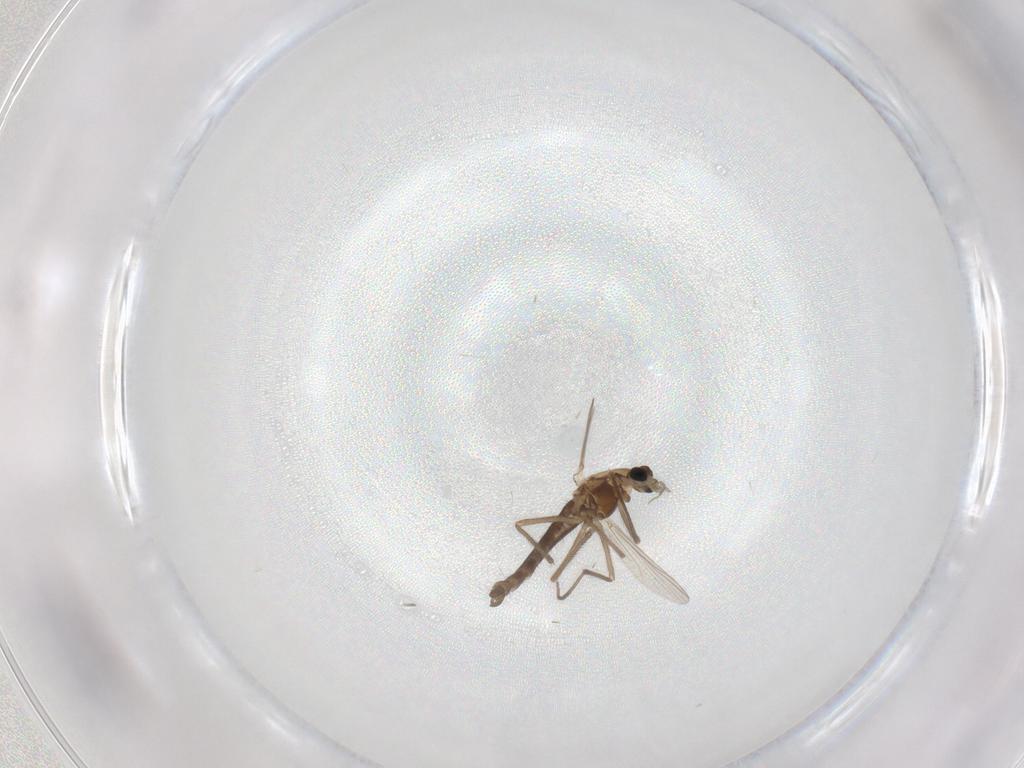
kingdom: Animalia
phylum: Arthropoda
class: Insecta
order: Diptera
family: Chironomidae
